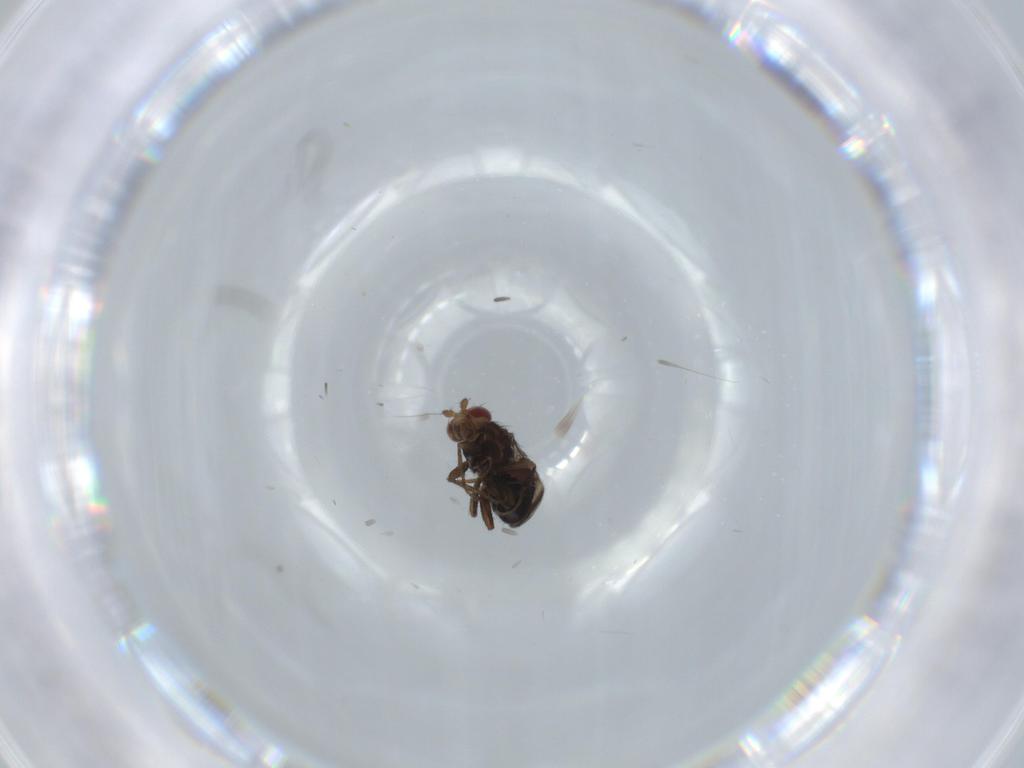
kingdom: Animalia
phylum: Arthropoda
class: Insecta
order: Diptera
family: Sphaeroceridae
